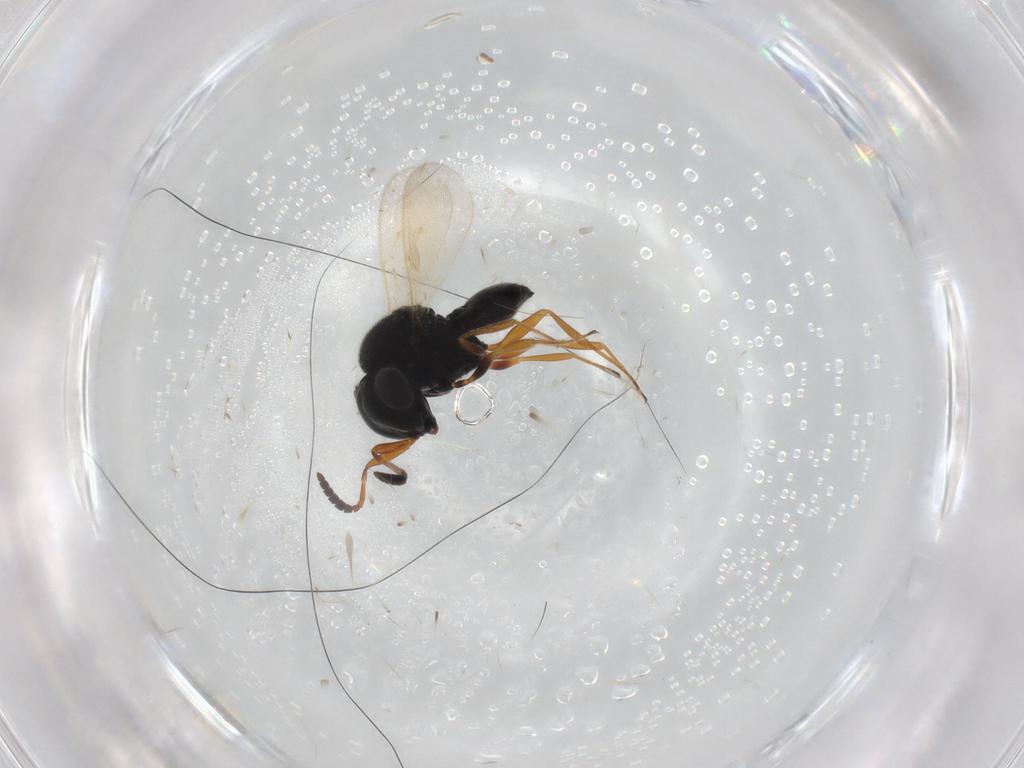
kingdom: Animalia
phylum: Arthropoda
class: Insecta
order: Hymenoptera
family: Scelionidae
